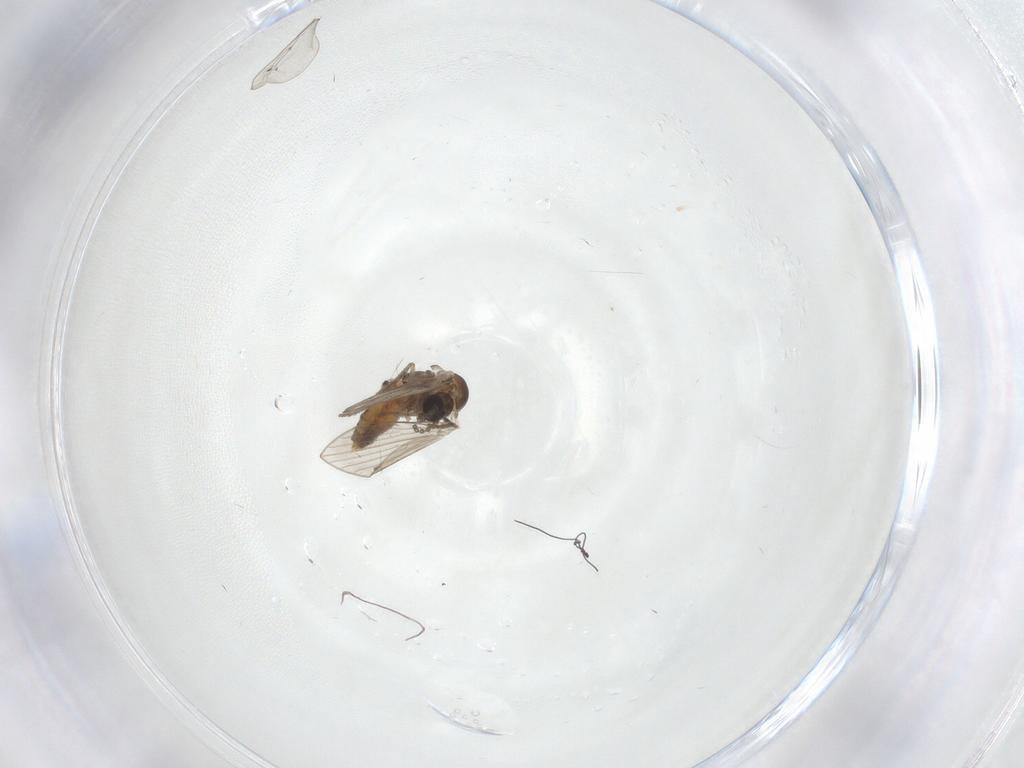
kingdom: Animalia
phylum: Arthropoda
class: Insecta
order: Diptera
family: Psychodidae
